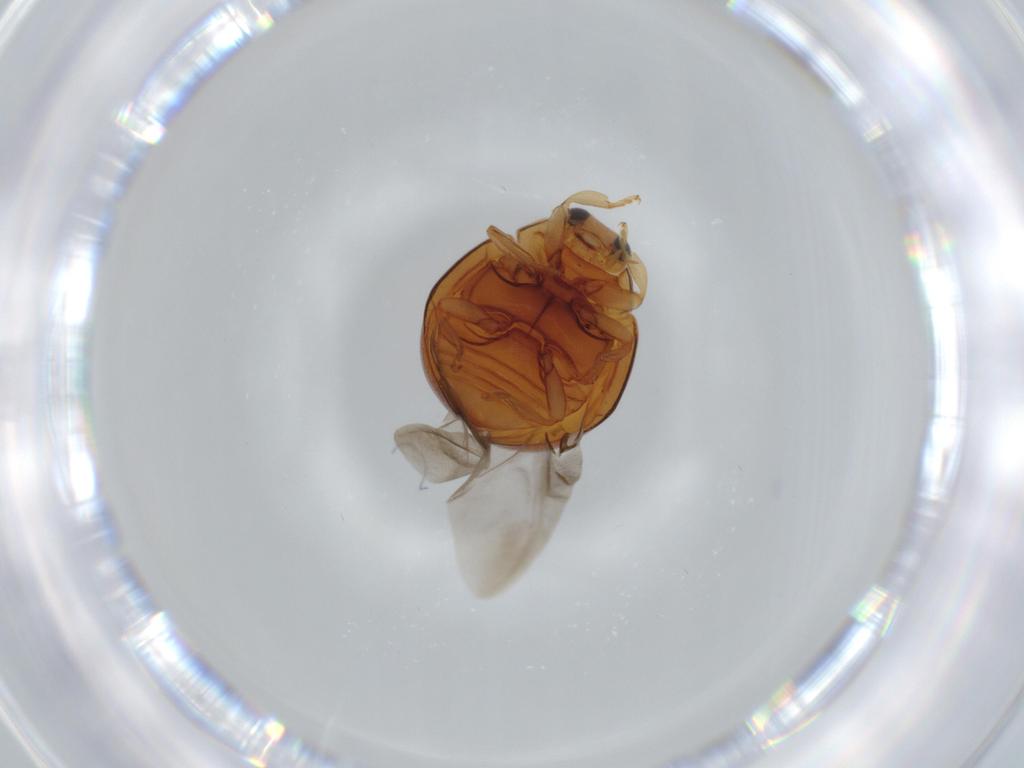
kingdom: Animalia
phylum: Arthropoda
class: Insecta
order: Coleoptera
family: Coccinellidae
